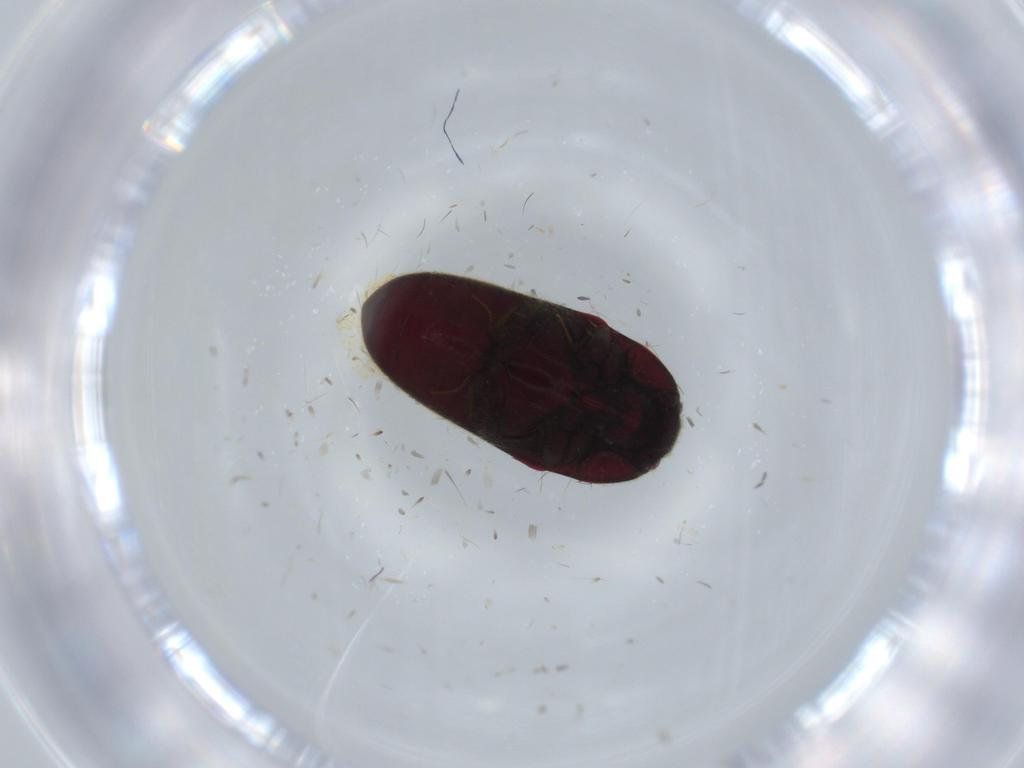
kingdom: Animalia
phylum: Arthropoda
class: Insecta
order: Coleoptera
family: Throscidae
